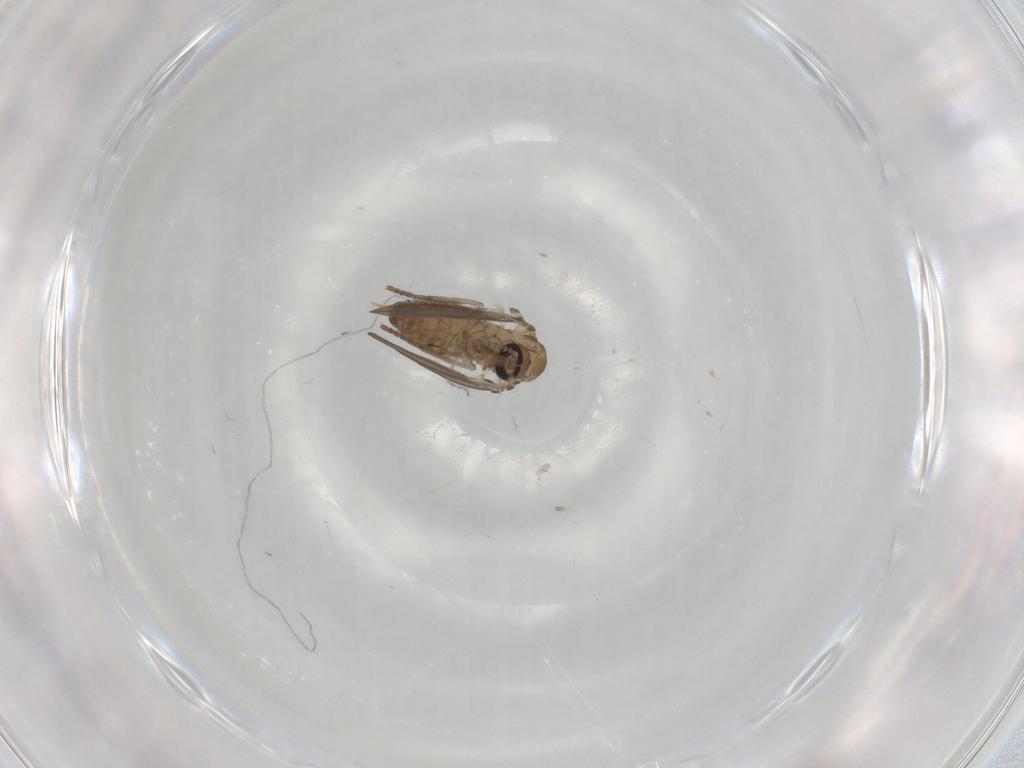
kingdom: Animalia
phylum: Arthropoda
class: Insecta
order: Diptera
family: Psychodidae
